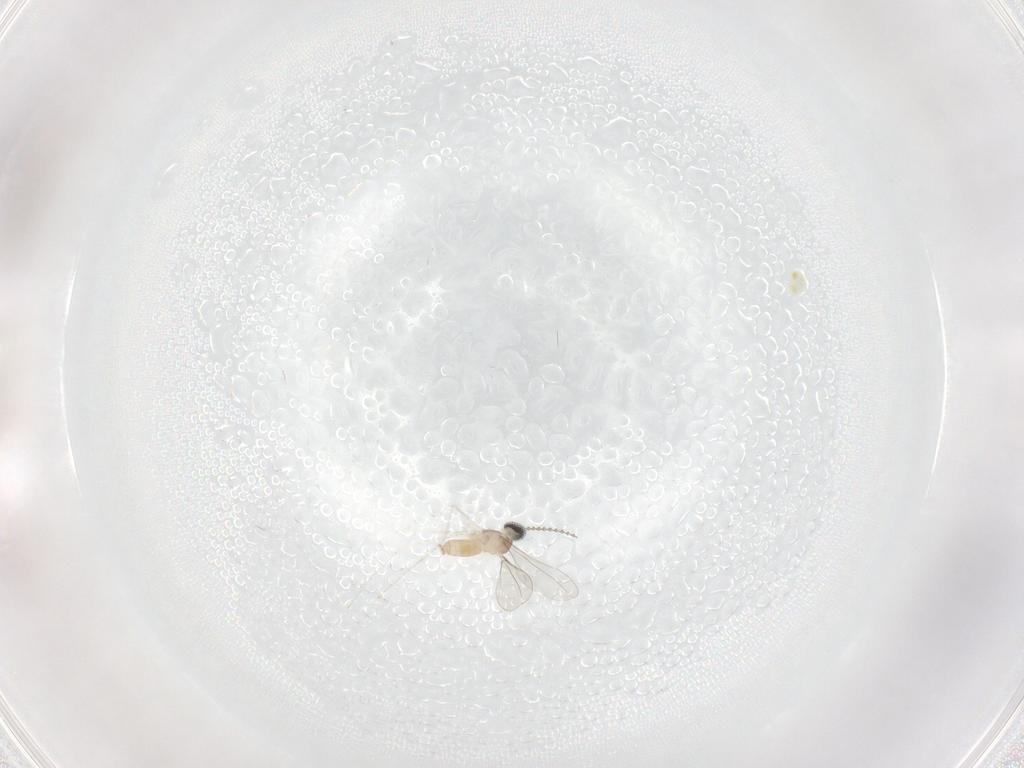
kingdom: Animalia
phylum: Arthropoda
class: Insecta
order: Diptera
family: Cecidomyiidae
